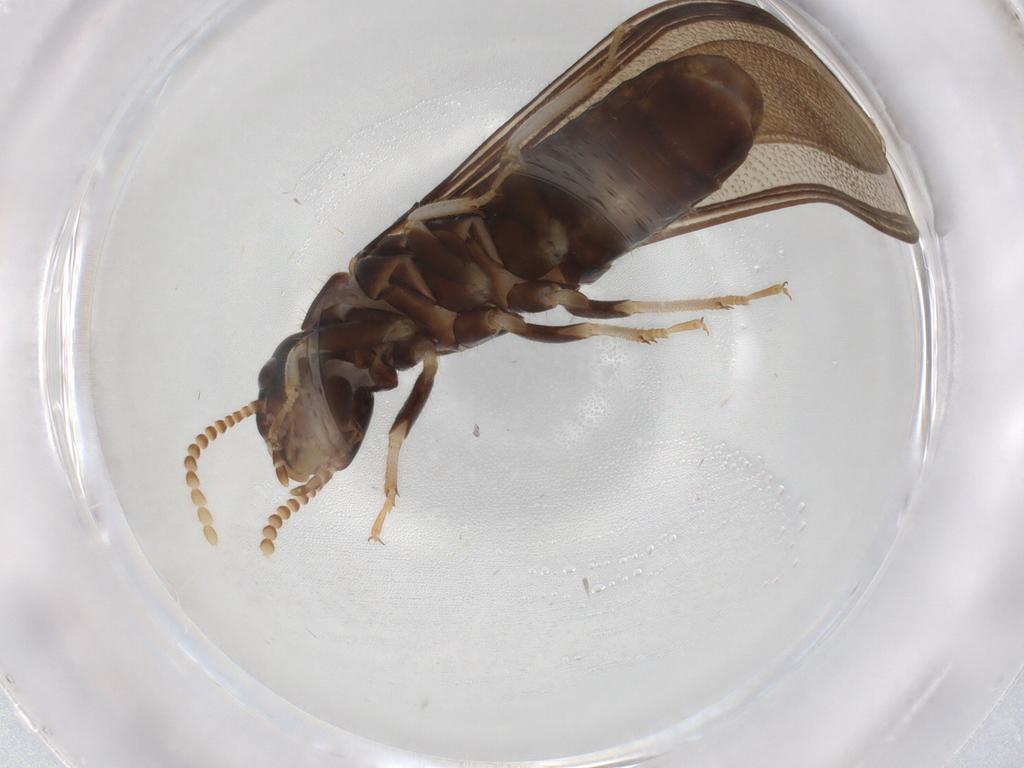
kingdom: Animalia
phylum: Arthropoda
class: Insecta
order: Blattodea
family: Kalotermitidae
